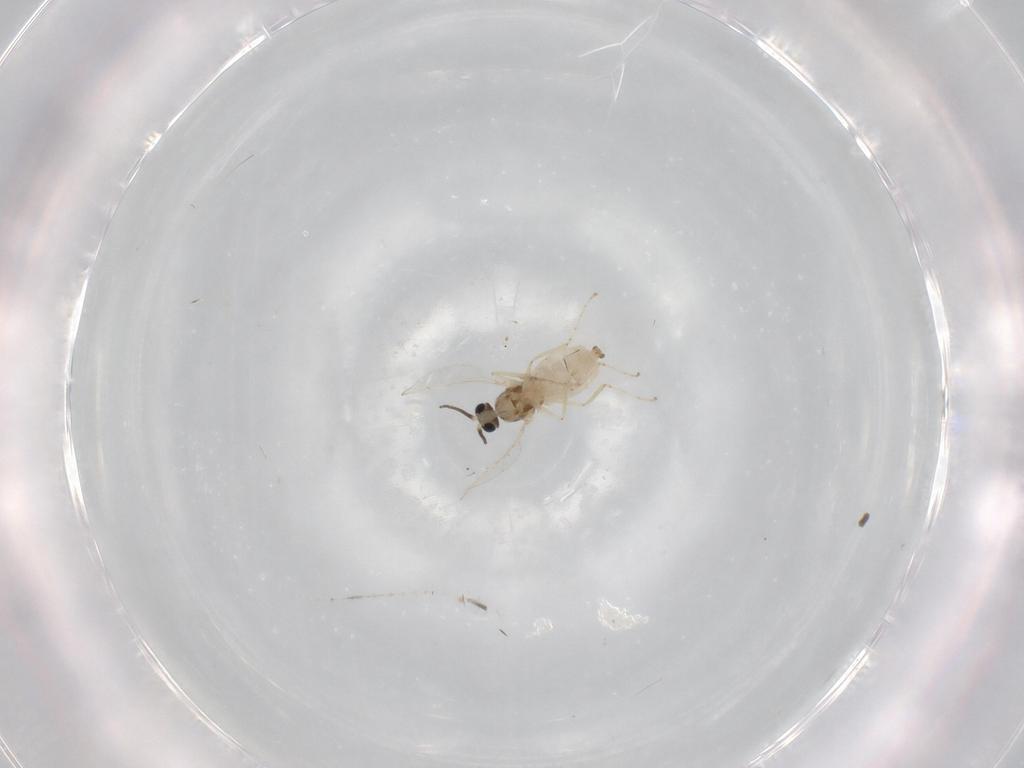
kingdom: Animalia
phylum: Arthropoda
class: Insecta
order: Diptera
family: Cecidomyiidae
